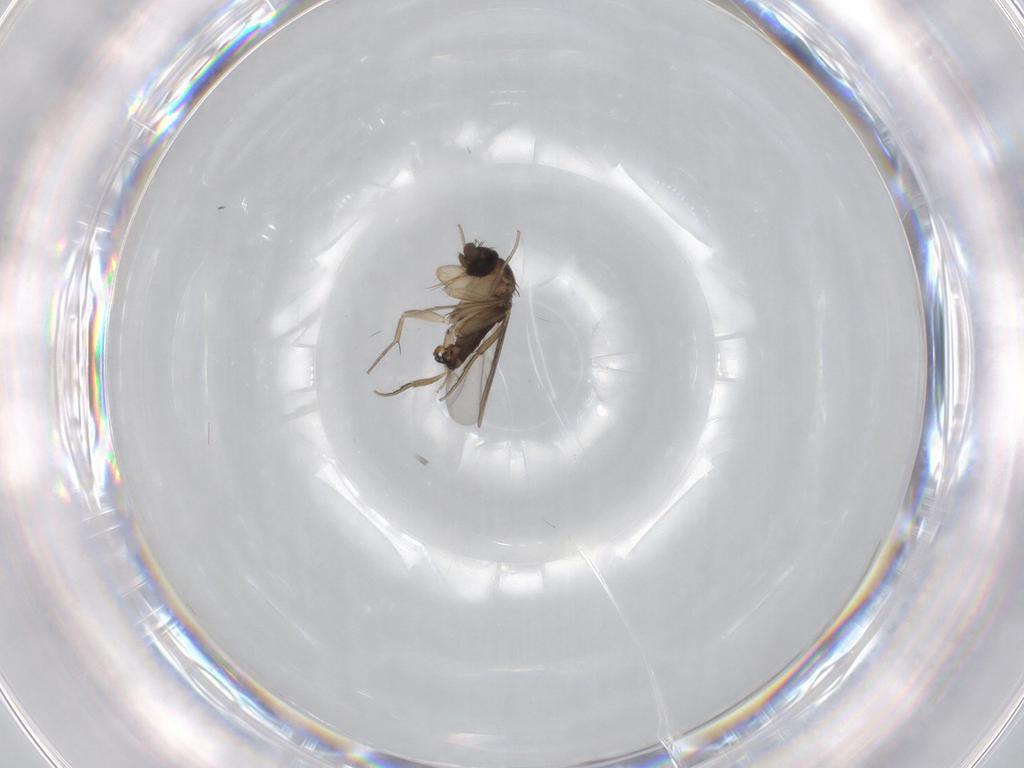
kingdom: Animalia
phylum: Arthropoda
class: Insecta
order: Diptera
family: Phoridae
